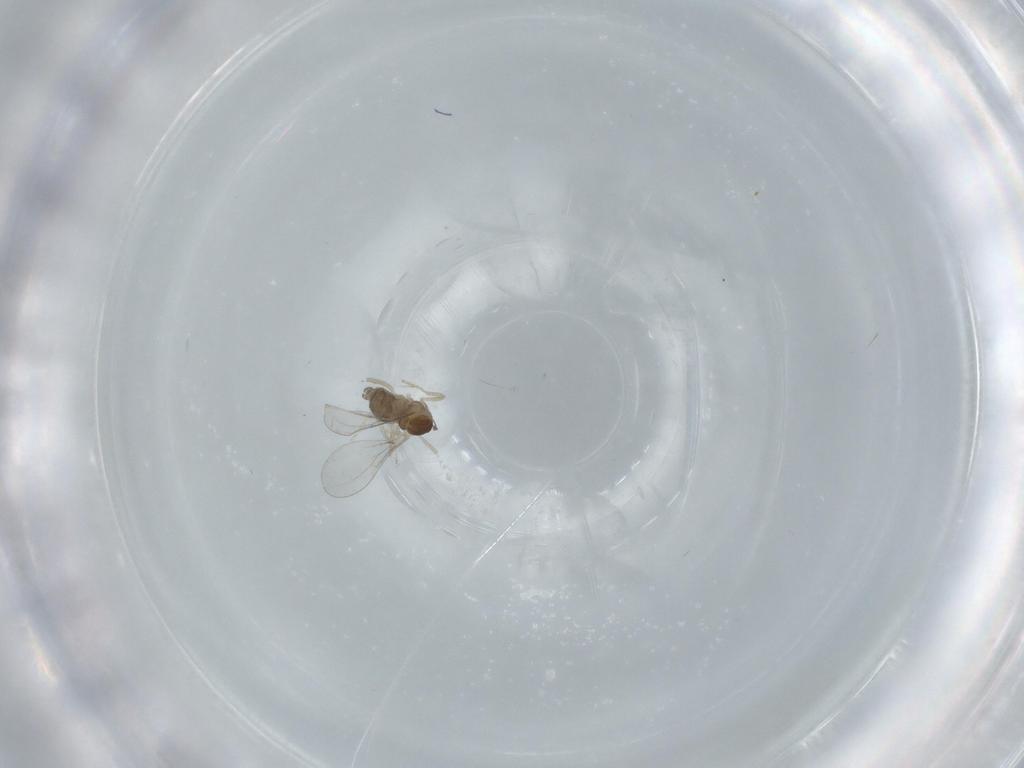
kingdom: Animalia
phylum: Arthropoda
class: Insecta
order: Diptera
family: Cecidomyiidae
